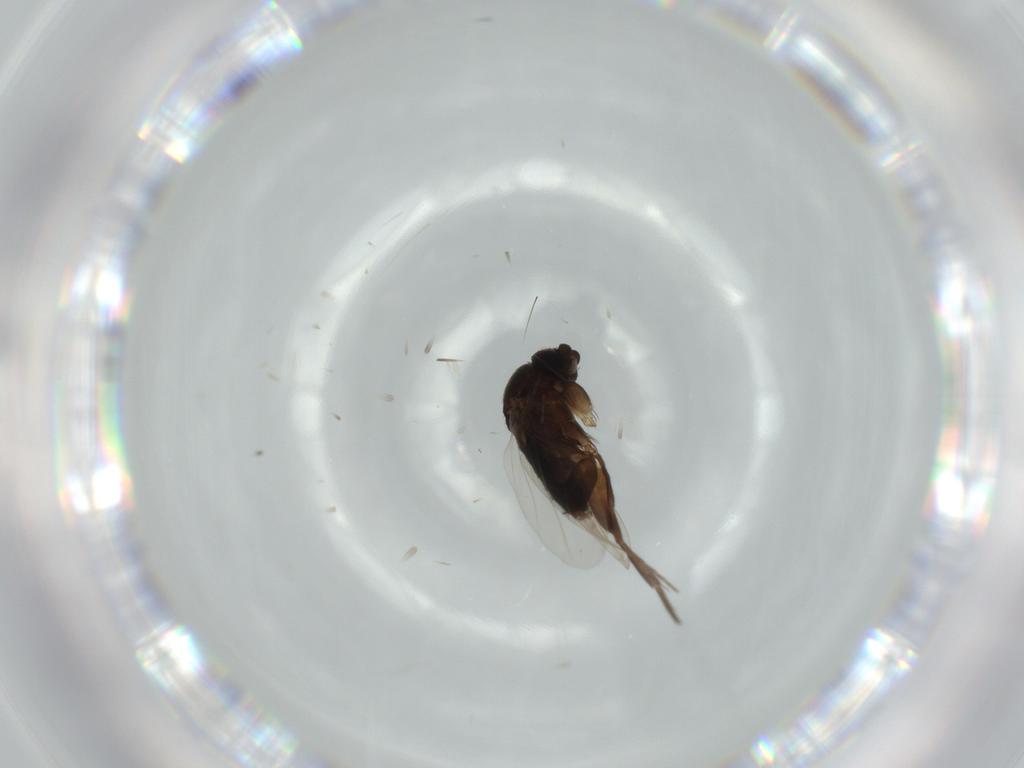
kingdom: Animalia
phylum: Arthropoda
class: Insecta
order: Diptera
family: Phoridae
